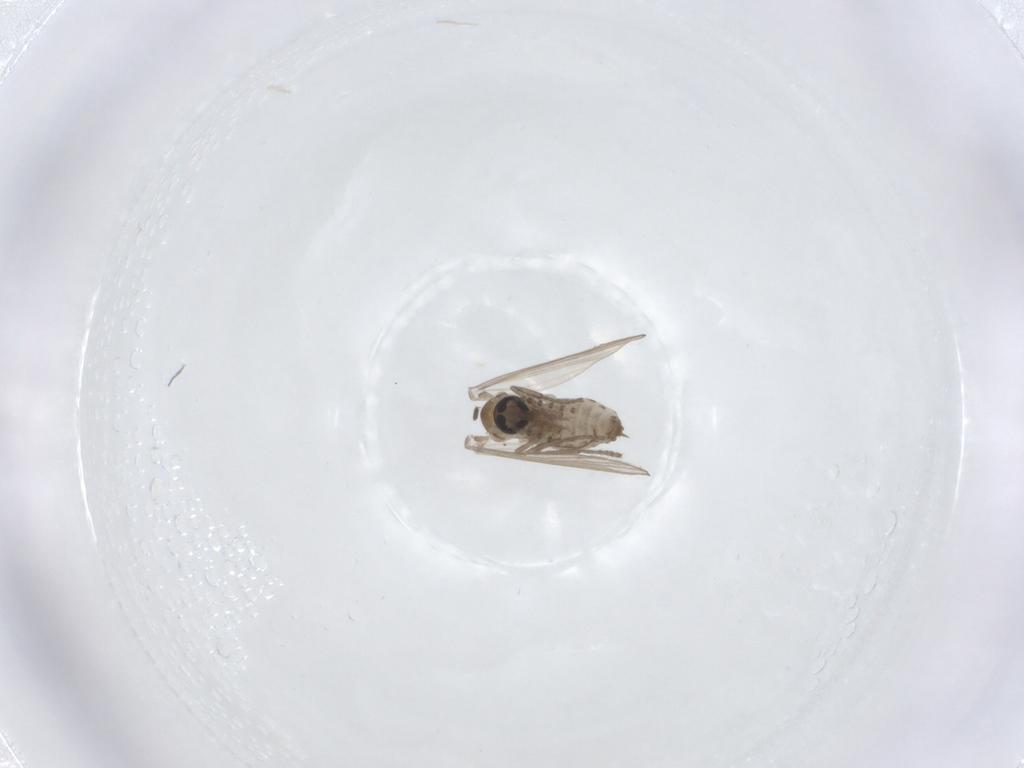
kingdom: Animalia
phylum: Arthropoda
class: Insecta
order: Diptera
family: Psychodidae
